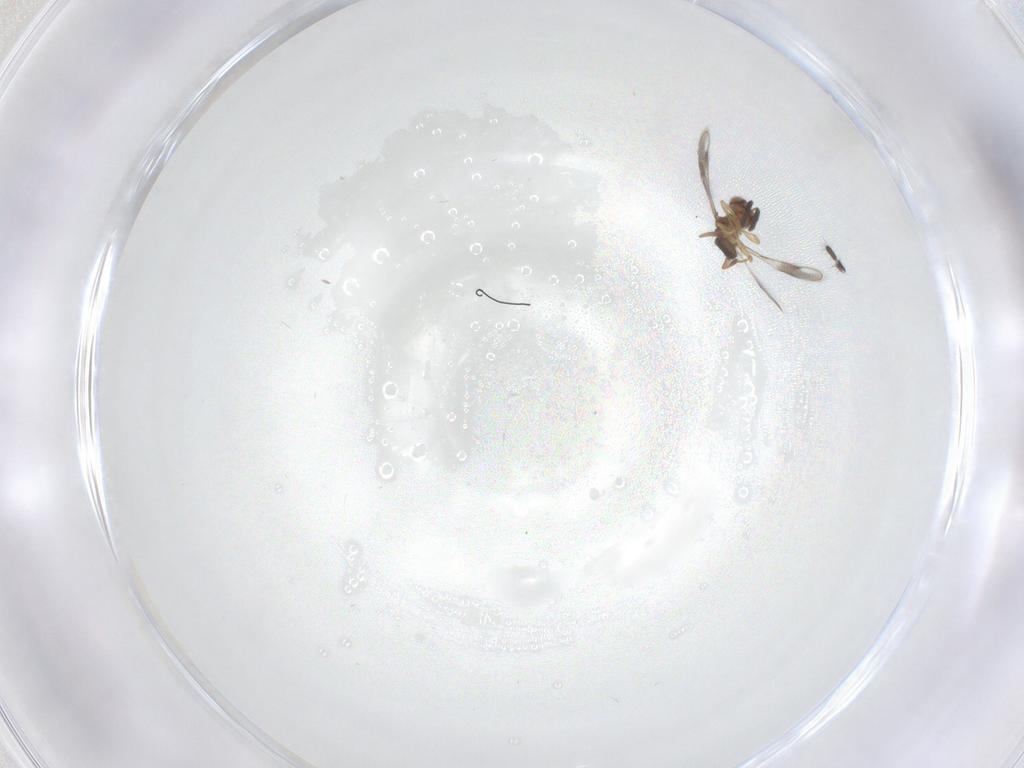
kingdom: Animalia
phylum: Arthropoda
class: Insecta
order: Hymenoptera
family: Pteromalidae
